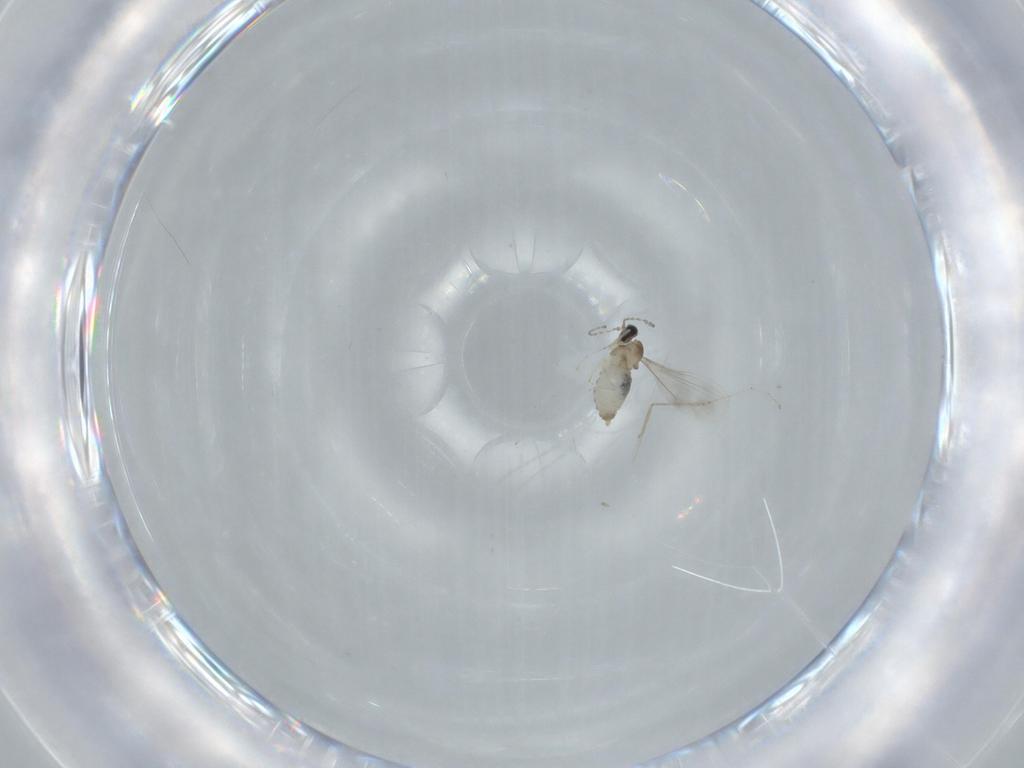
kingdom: Animalia
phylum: Arthropoda
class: Insecta
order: Diptera
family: Cecidomyiidae
